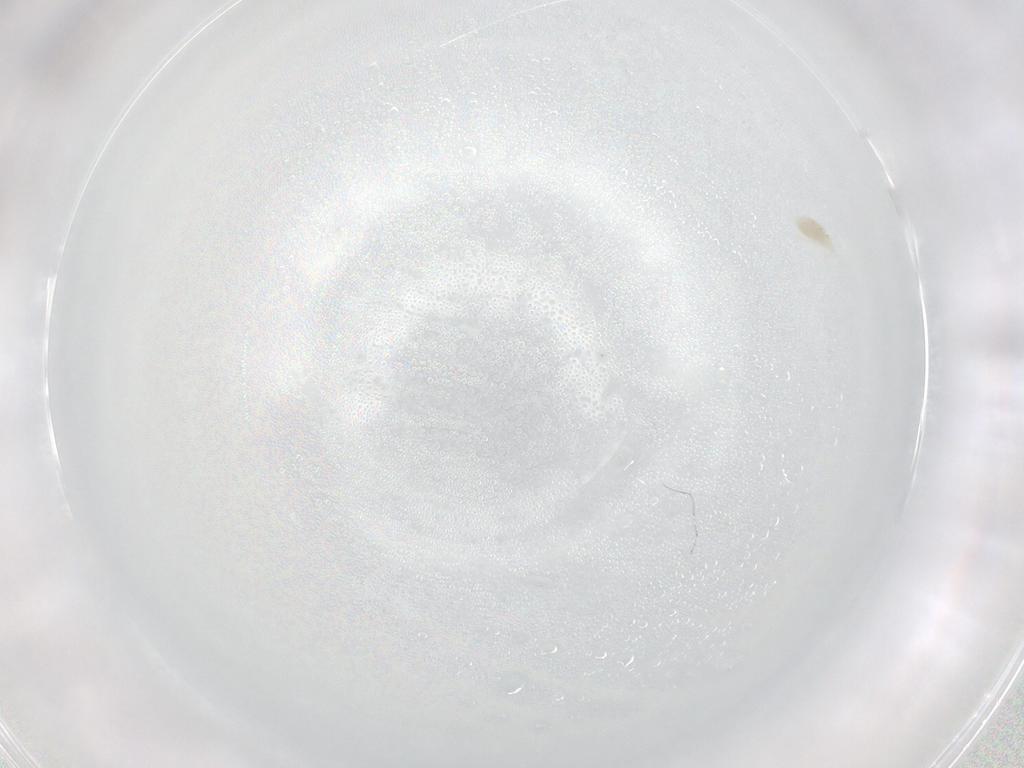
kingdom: Animalia
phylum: Arthropoda
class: Arachnida
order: Trombidiformes
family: Eupodidae
